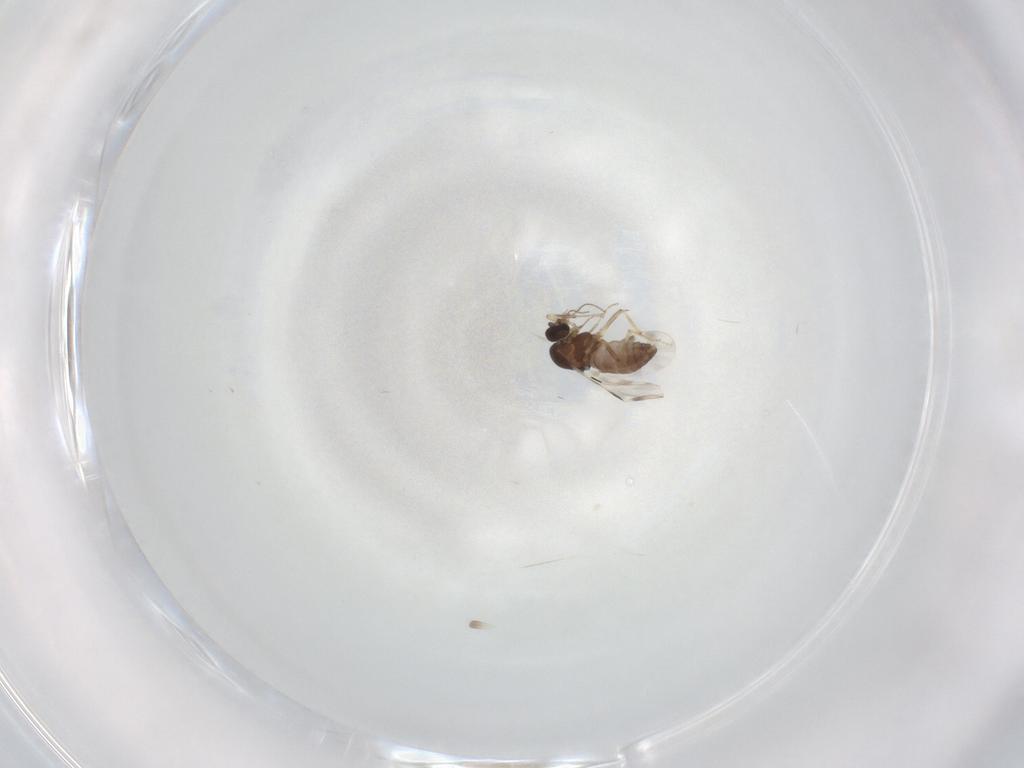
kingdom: Animalia
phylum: Arthropoda
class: Insecta
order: Diptera
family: Ceratopogonidae
